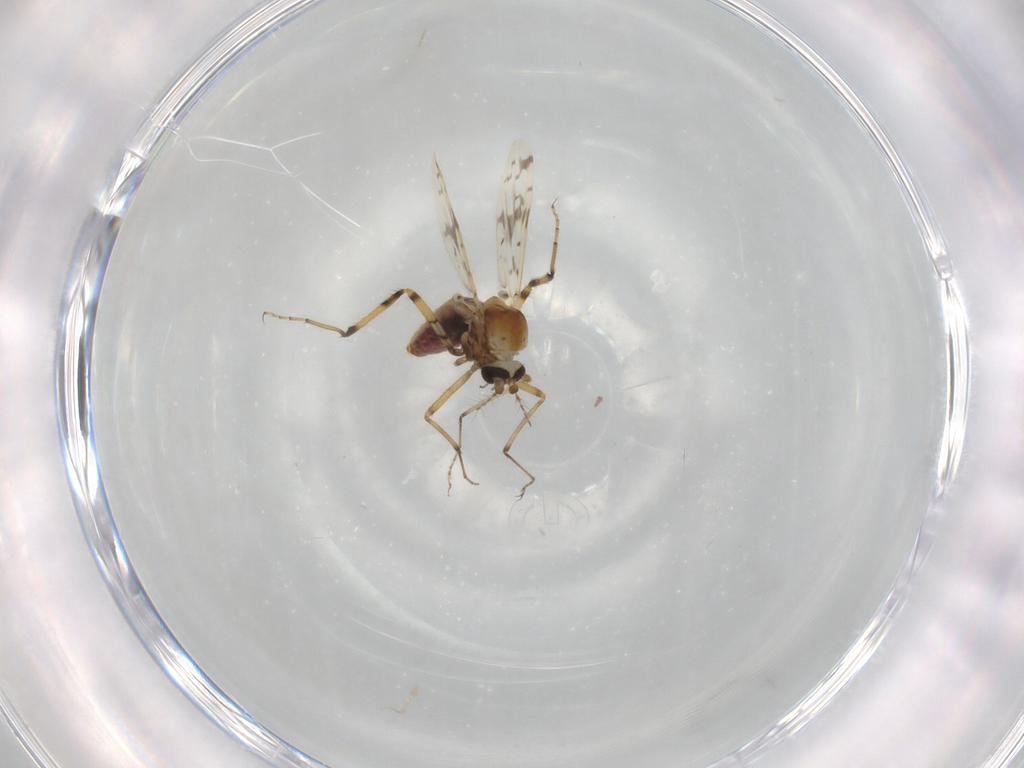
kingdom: Animalia
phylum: Arthropoda
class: Insecta
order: Diptera
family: Ceratopogonidae
